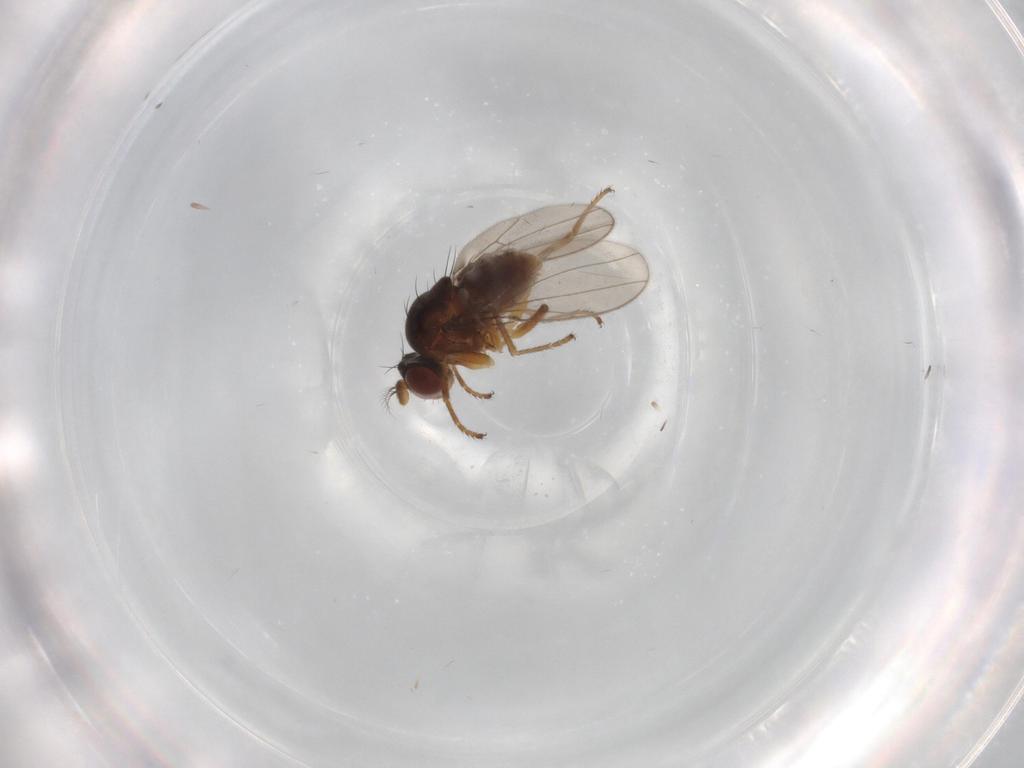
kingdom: Animalia
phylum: Arthropoda
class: Insecta
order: Diptera
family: Ephydridae
